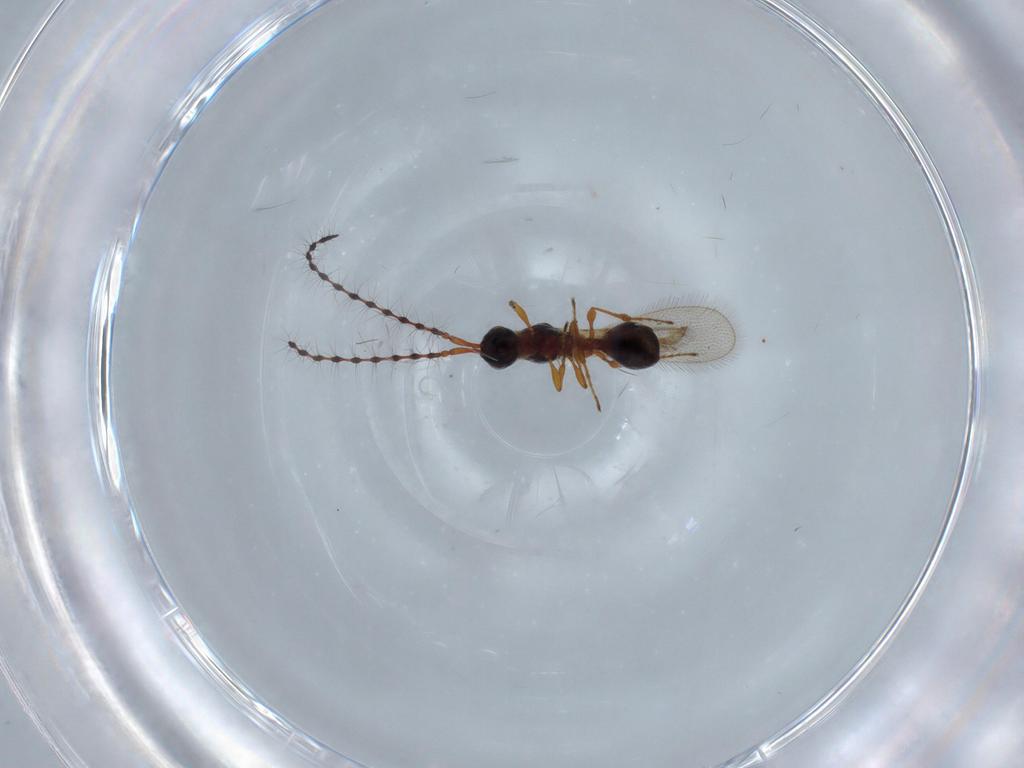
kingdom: Animalia
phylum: Arthropoda
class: Insecta
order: Hymenoptera
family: Diapriidae
